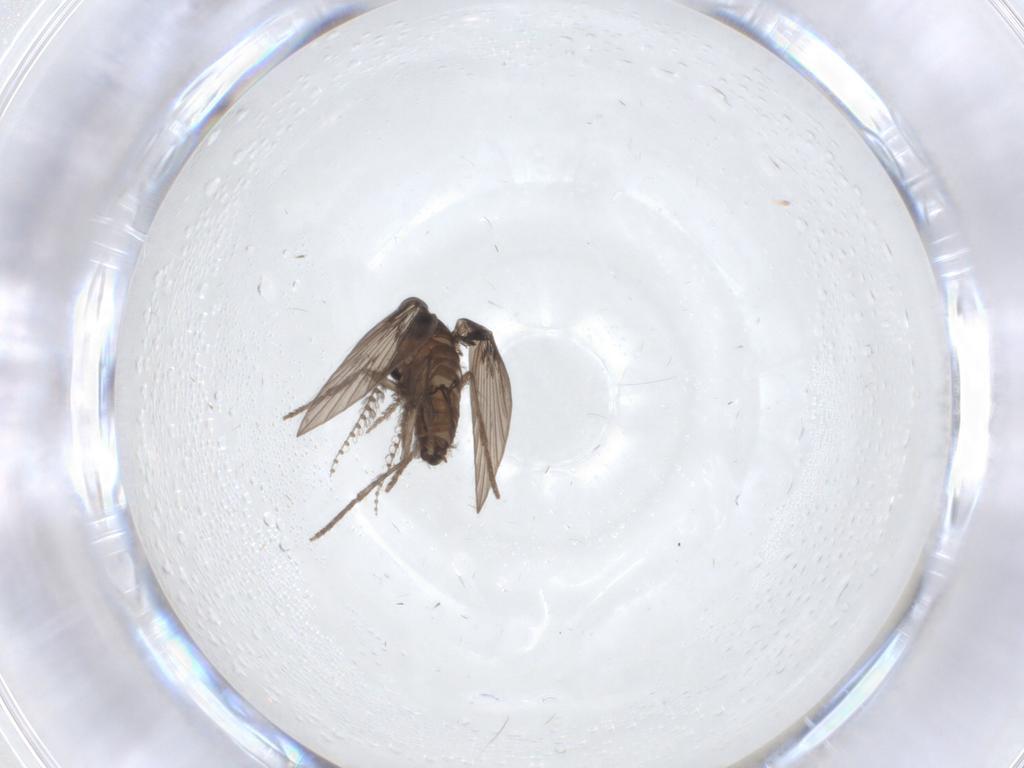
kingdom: Animalia
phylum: Arthropoda
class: Insecta
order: Diptera
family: Psychodidae
